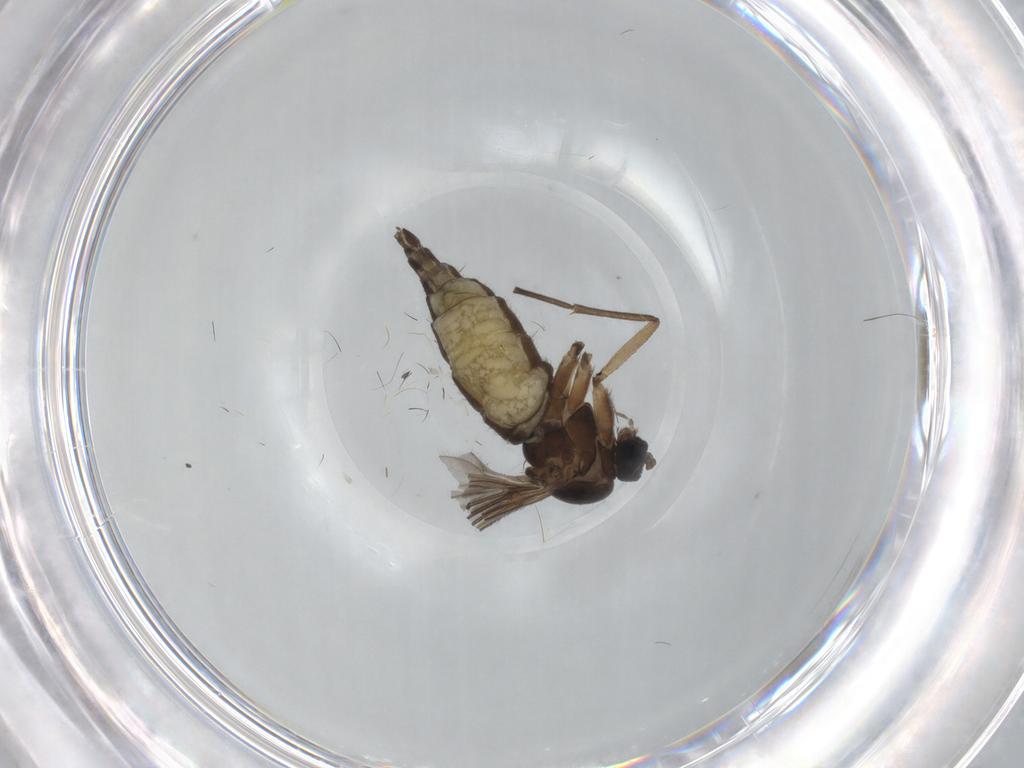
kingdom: Animalia
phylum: Arthropoda
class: Insecta
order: Diptera
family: Sciaridae
